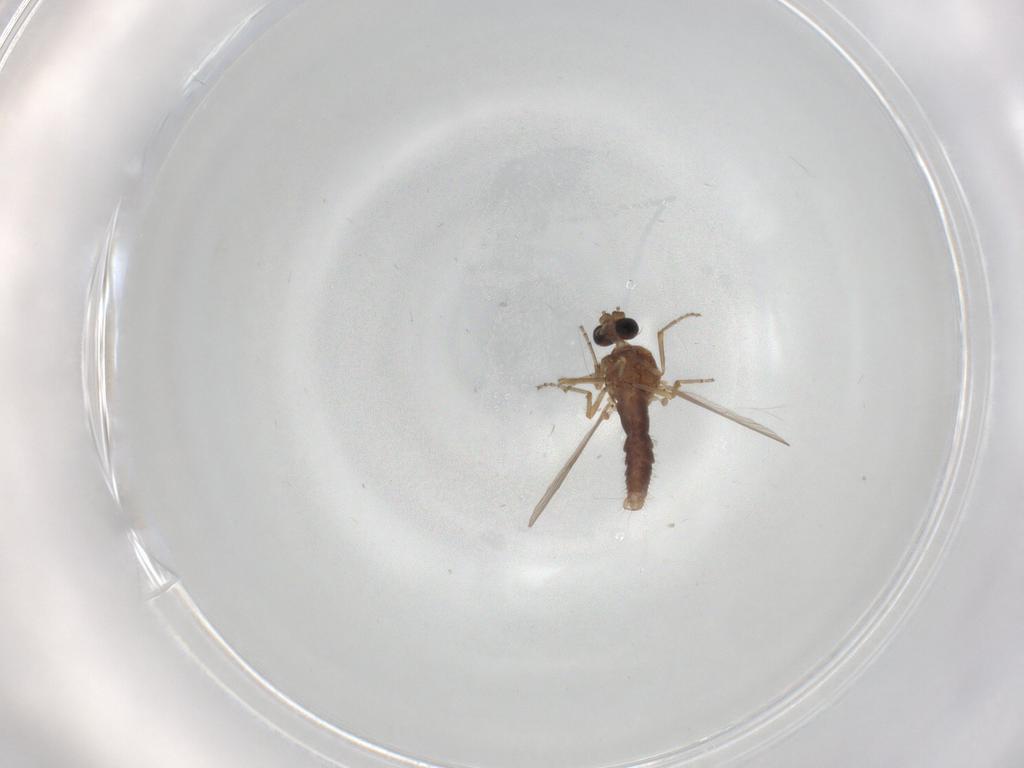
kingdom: Animalia
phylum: Arthropoda
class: Insecta
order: Diptera
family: Ceratopogonidae
